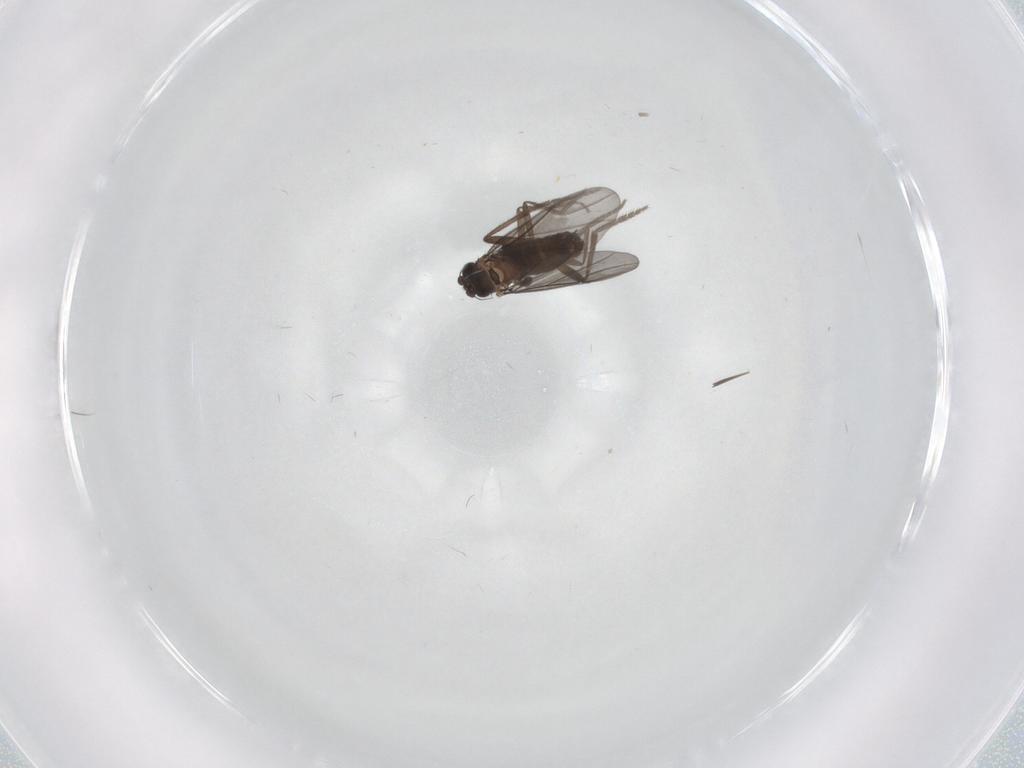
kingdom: Animalia
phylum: Arthropoda
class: Insecta
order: Diptera
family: Phoridae
